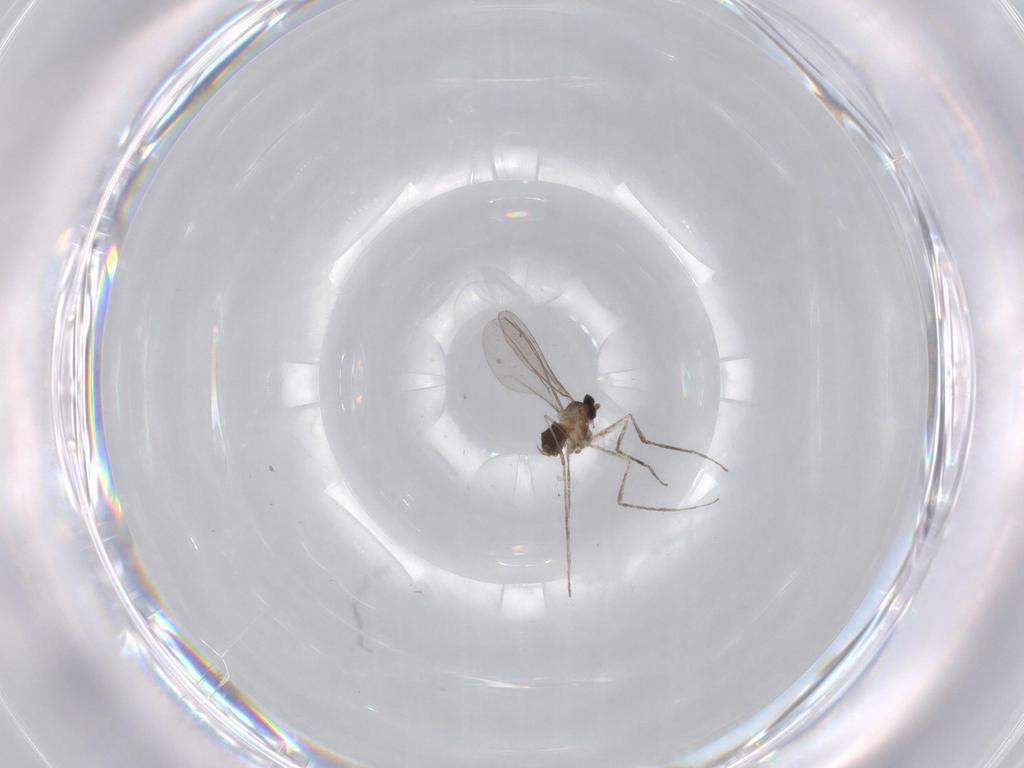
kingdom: Animalia
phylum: Arthropoda
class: Insecta
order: Diptera
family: Cecidomyiidae
